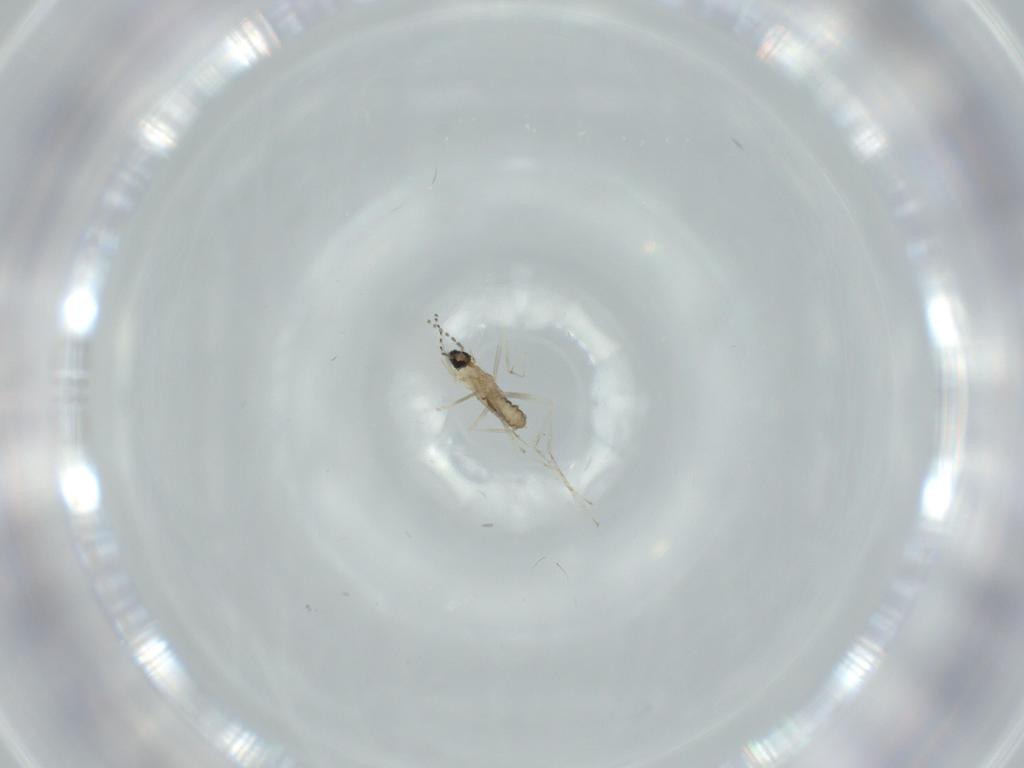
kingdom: Animalia
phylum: Arthropoda
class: Insecta
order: Diptera
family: Cecidomyiidae
